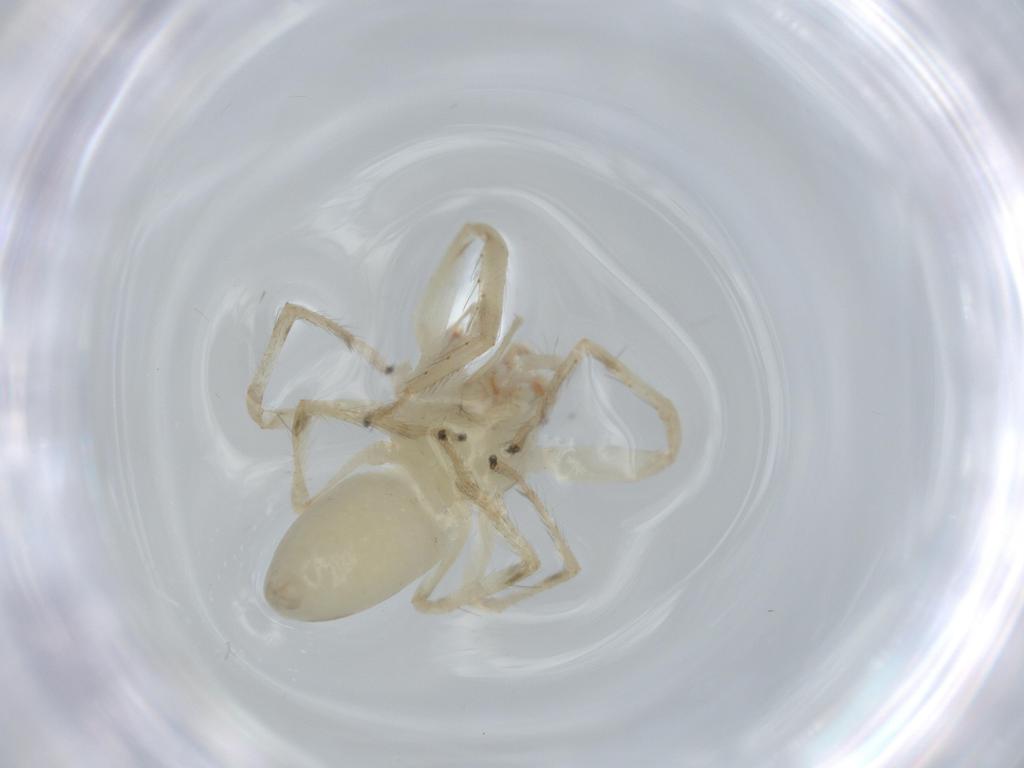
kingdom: Animalia
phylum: Arthropoda
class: Arachnida
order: Araneae
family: Salticidae
